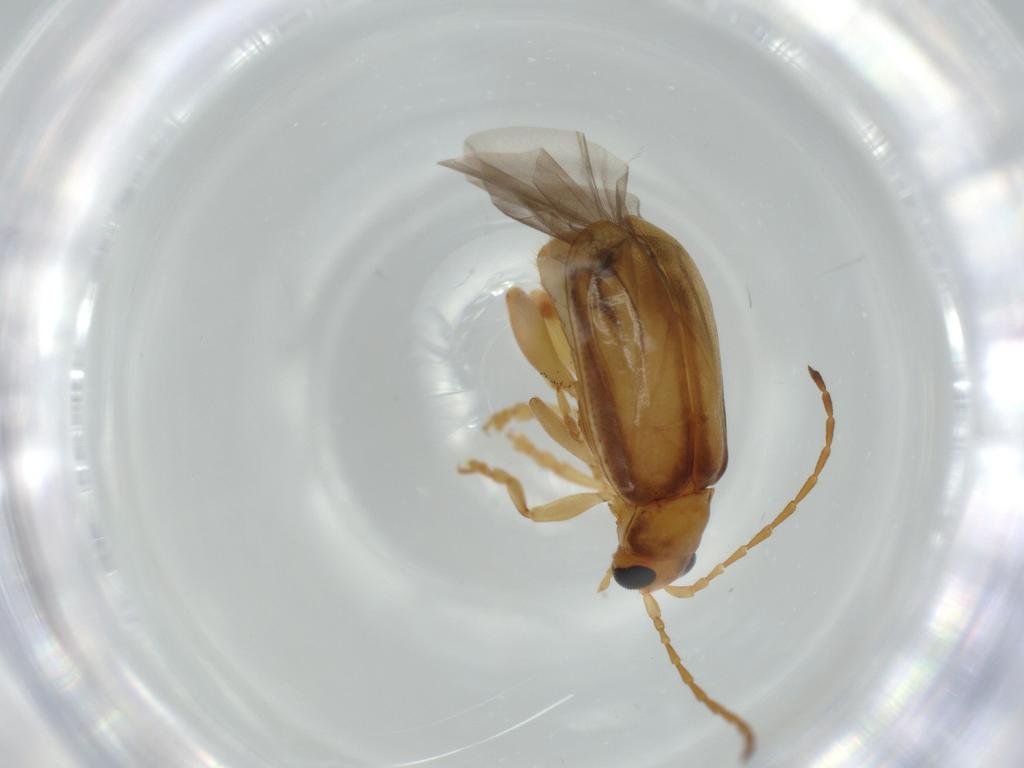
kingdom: Animalia
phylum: Arthropoda
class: Insecta
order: Coleoptera
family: Chrysomelidae
